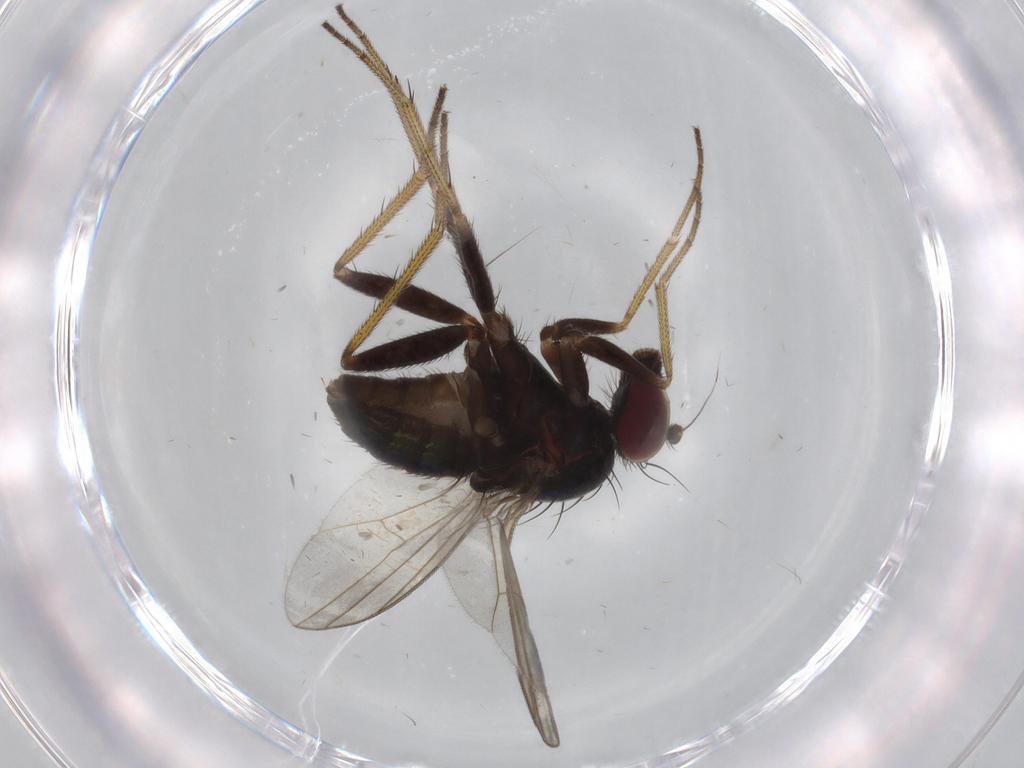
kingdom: Animalia
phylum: Arthropoda
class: Insecta
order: Diptera
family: Dolichopodidae
